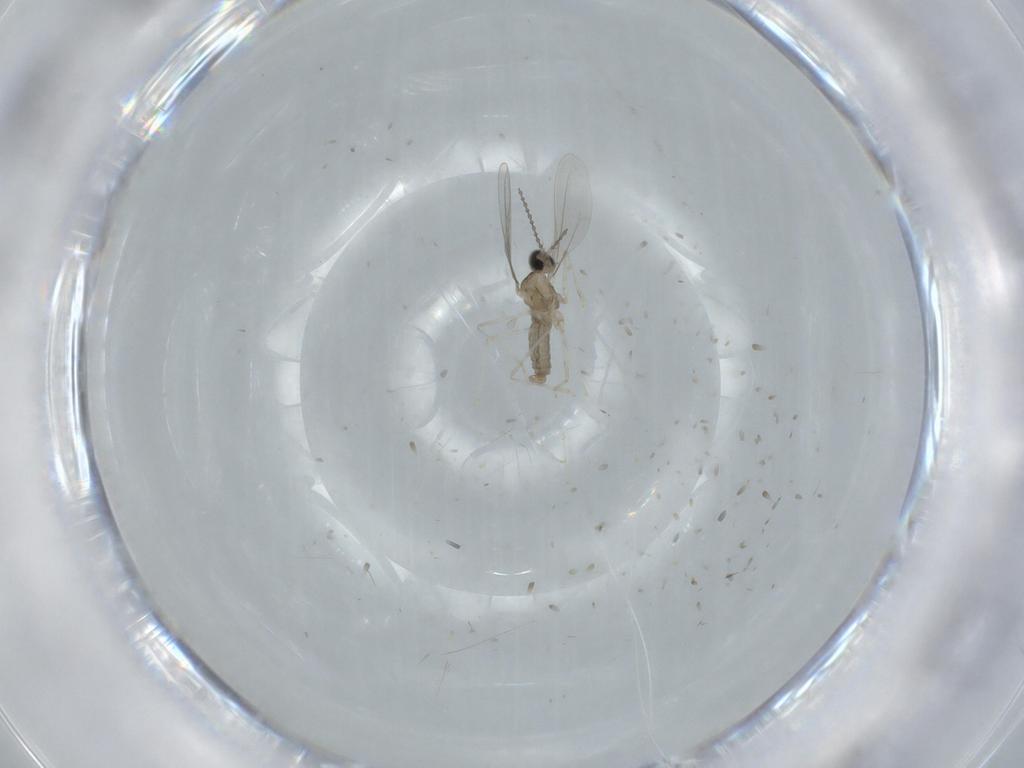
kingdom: Animalia
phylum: Arthropoda
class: Insecta
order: Diptera
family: Cecidomyiidae
